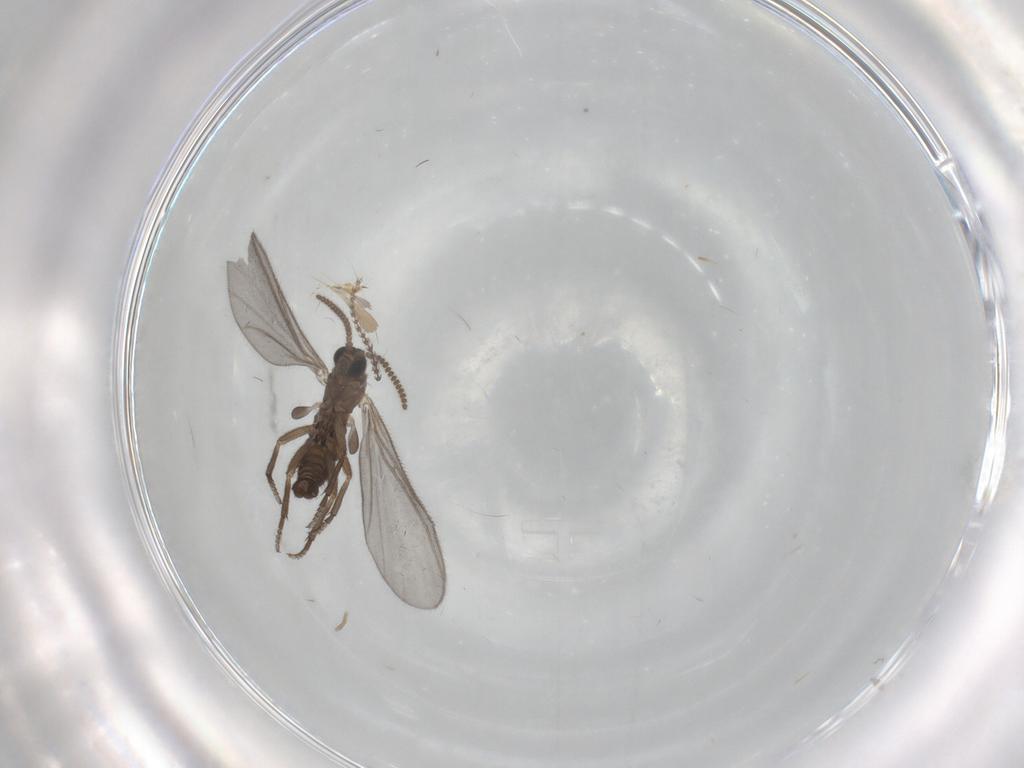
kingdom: Animalia
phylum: Arthropoda
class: Insecta
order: Diptera
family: Sciaridae
